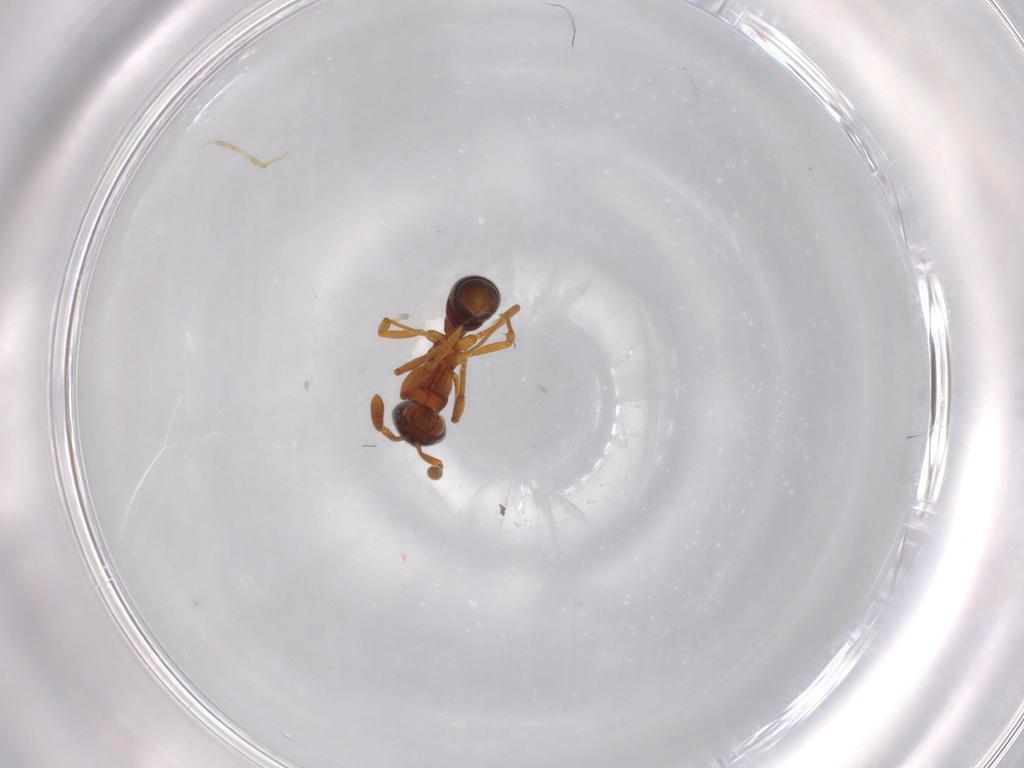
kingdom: Animalia
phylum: Arthropoda
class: Insecta
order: Hymenoptera
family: Formicidae
